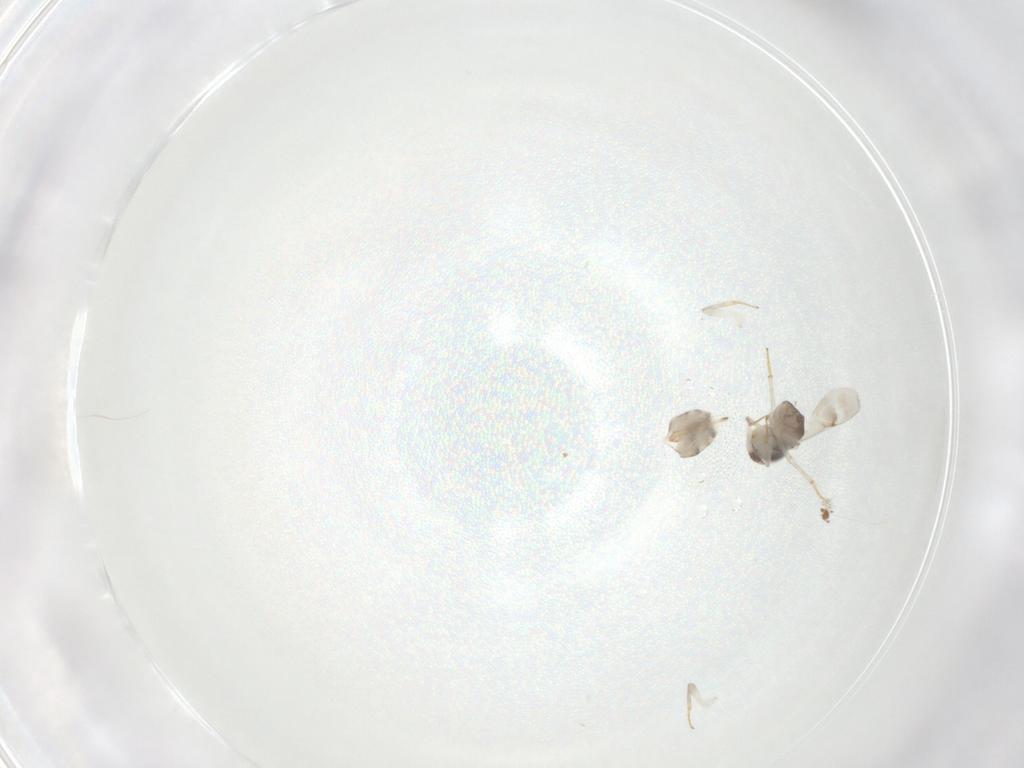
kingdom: Animalia
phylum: Arthropoda
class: Insecta
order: Hymenoptera
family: Encyrtidae
